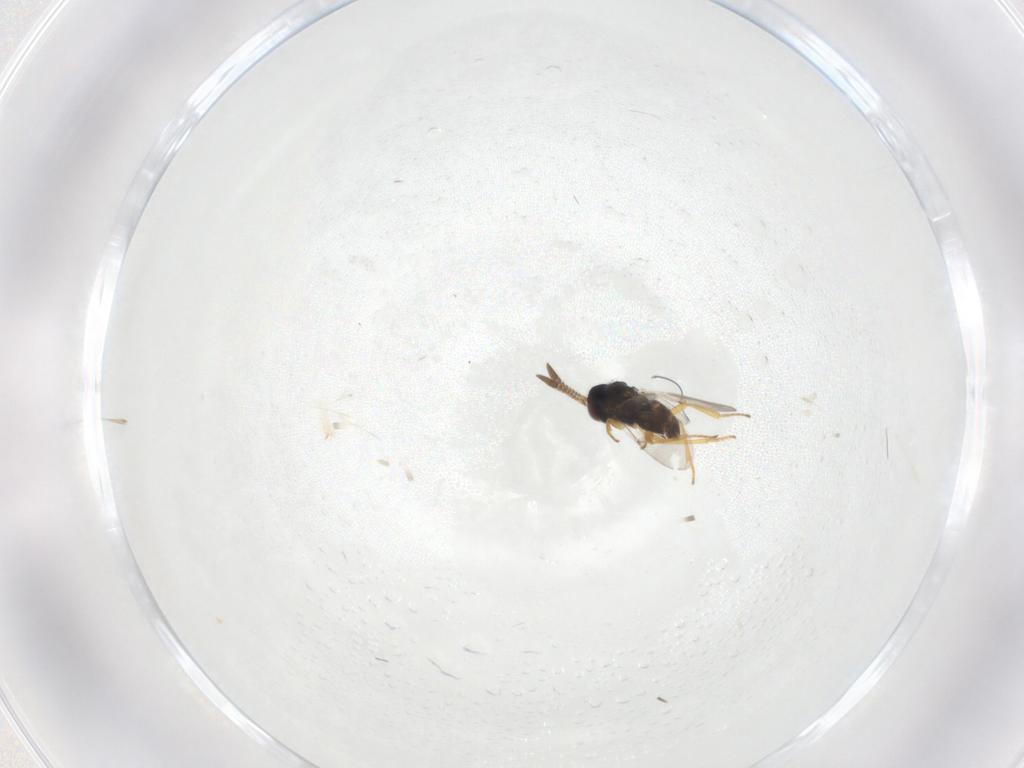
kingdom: Animalia
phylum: Arthropoda
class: Insecta
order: Hymenoptera
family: Encyrtidae
